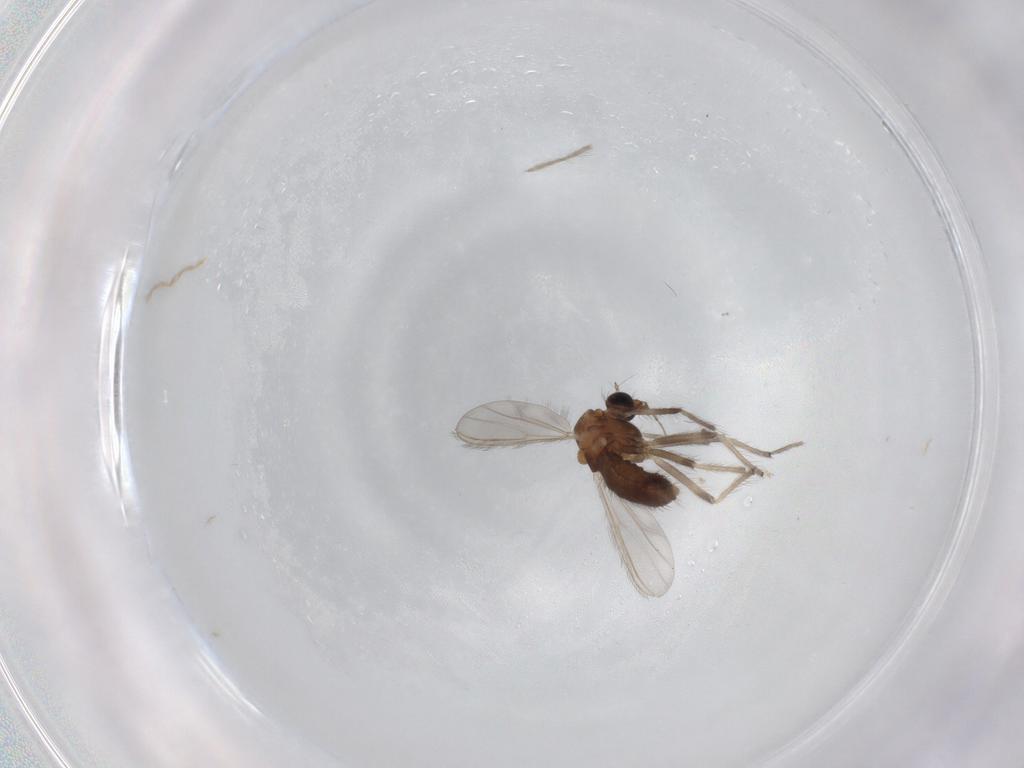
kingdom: Animalia
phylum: Arthropoda
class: Insecta
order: Diptera
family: Chironomidae
